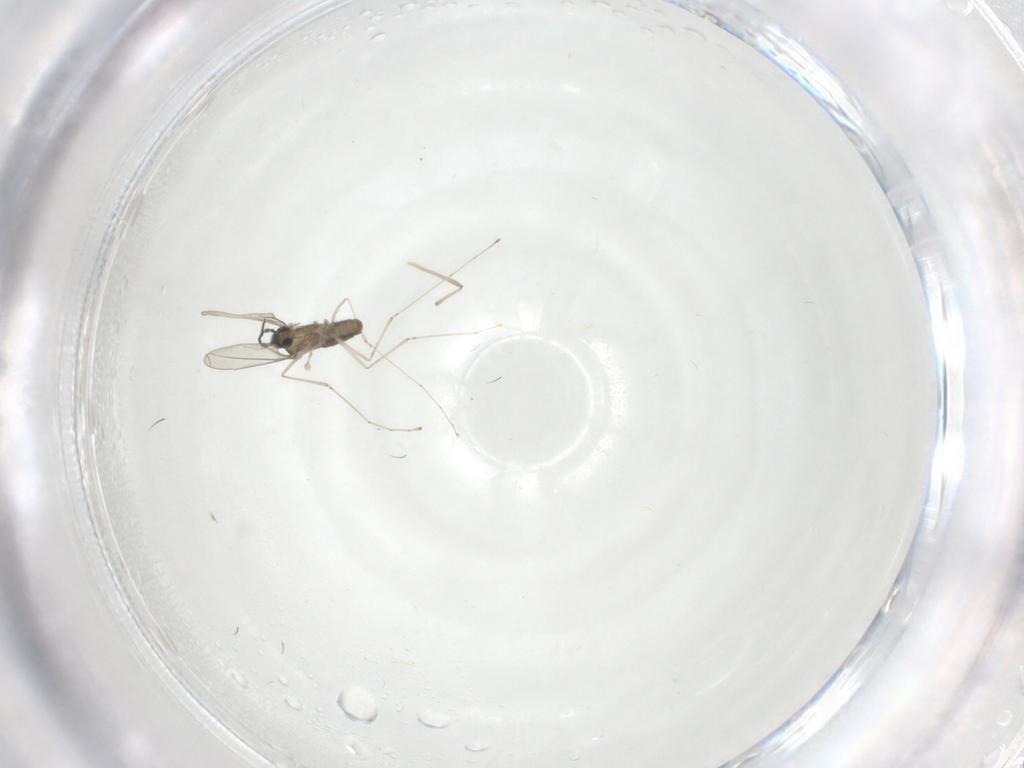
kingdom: Animalia
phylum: Arthropoda
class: Insecta
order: Diptera
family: Cecidomyiidae
